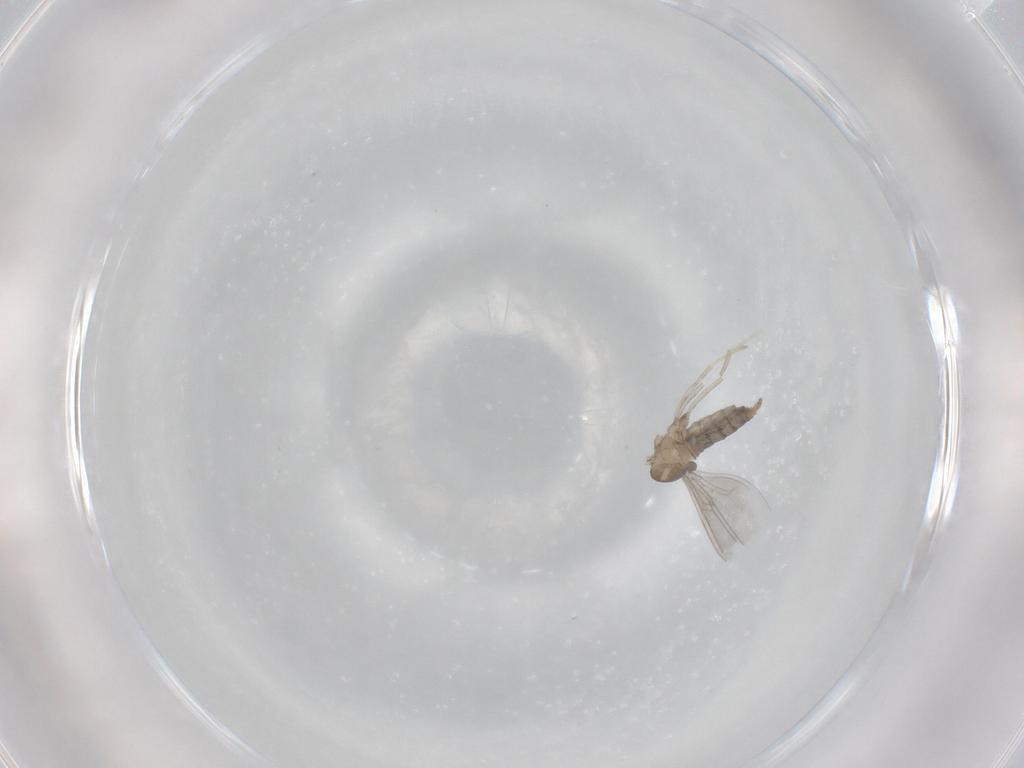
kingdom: Animalia
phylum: Arthropoda
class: Insecta
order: Diptera
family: Cecidomyiidae
